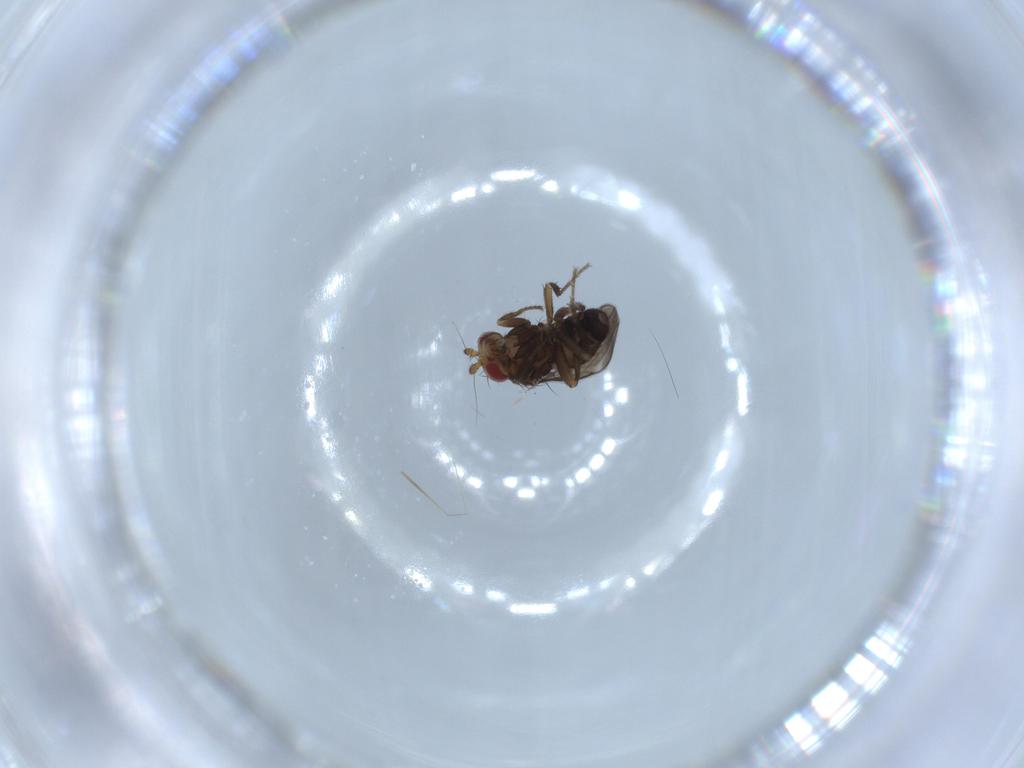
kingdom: Animalia
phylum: Arthropoda
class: Insecta
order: Diptera
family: Sphaeroceridae
